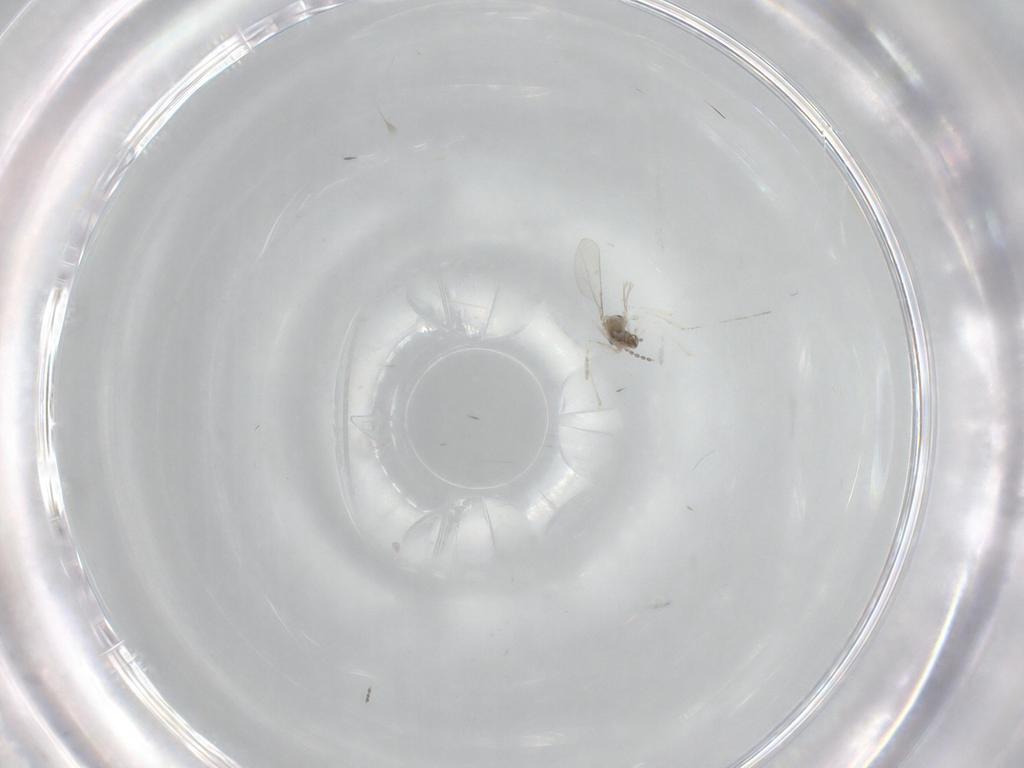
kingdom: Animalia
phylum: Arthropoda
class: Insecta
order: Diptera
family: Cecidomyiidae
